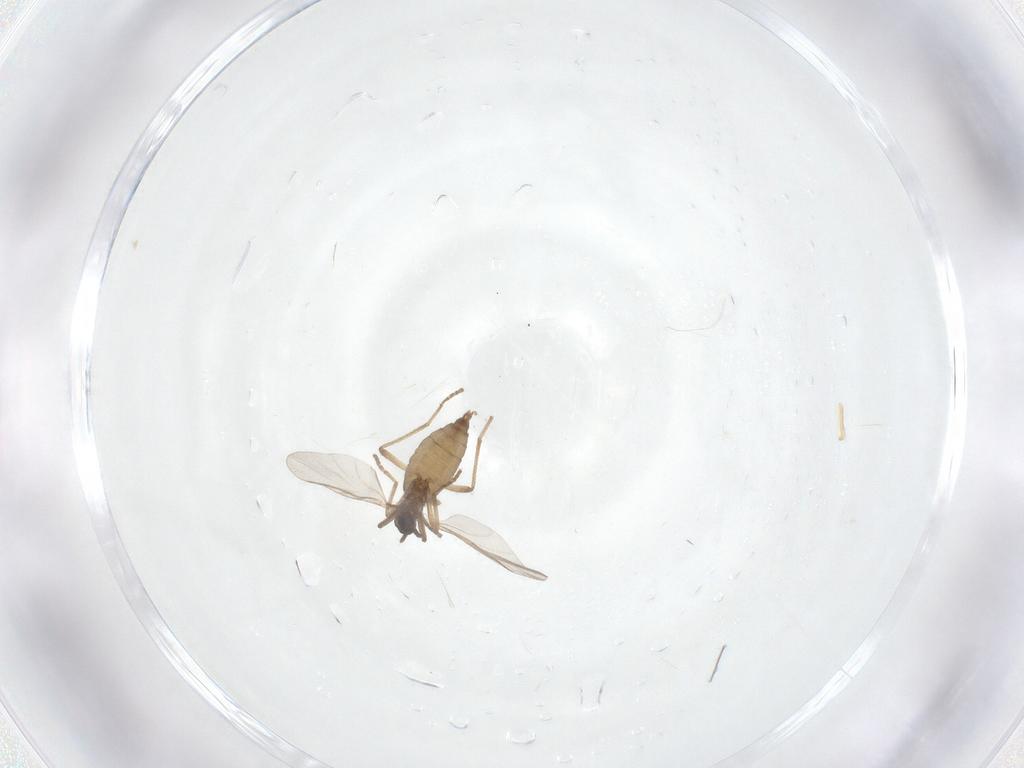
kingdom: Animalia
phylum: Arthropoda
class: Insecta
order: Diptera
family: Cecidomyiidae
